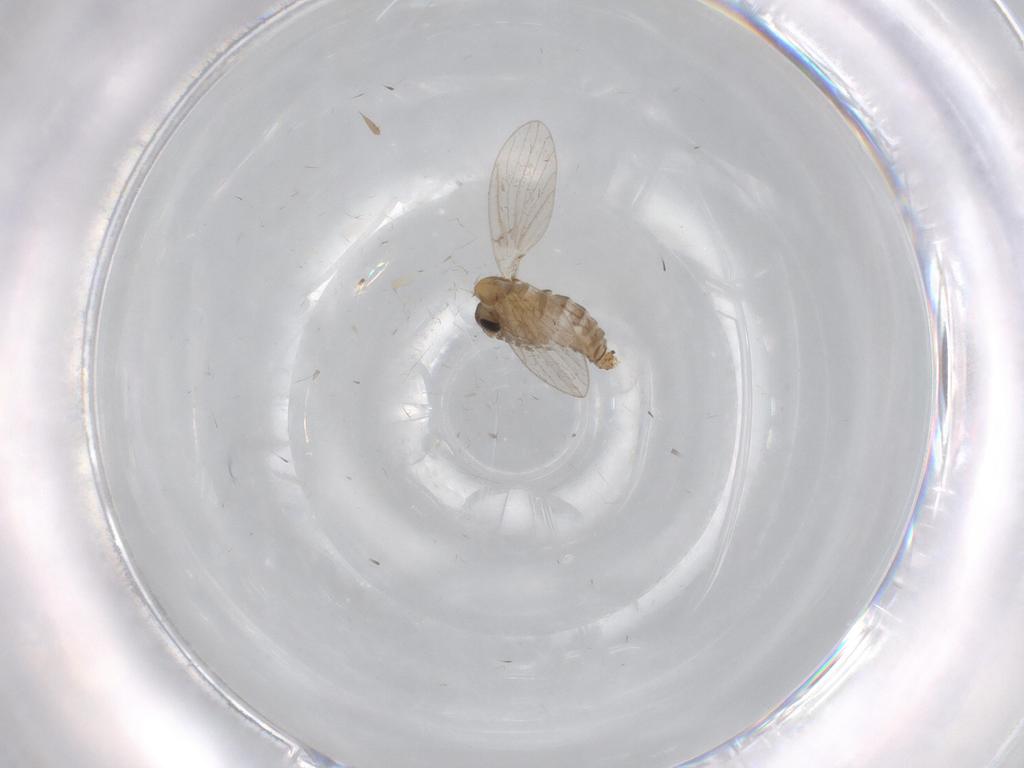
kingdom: Animalia
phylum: Arthropoda
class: Insecta
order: Diptera
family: Limoniidae
